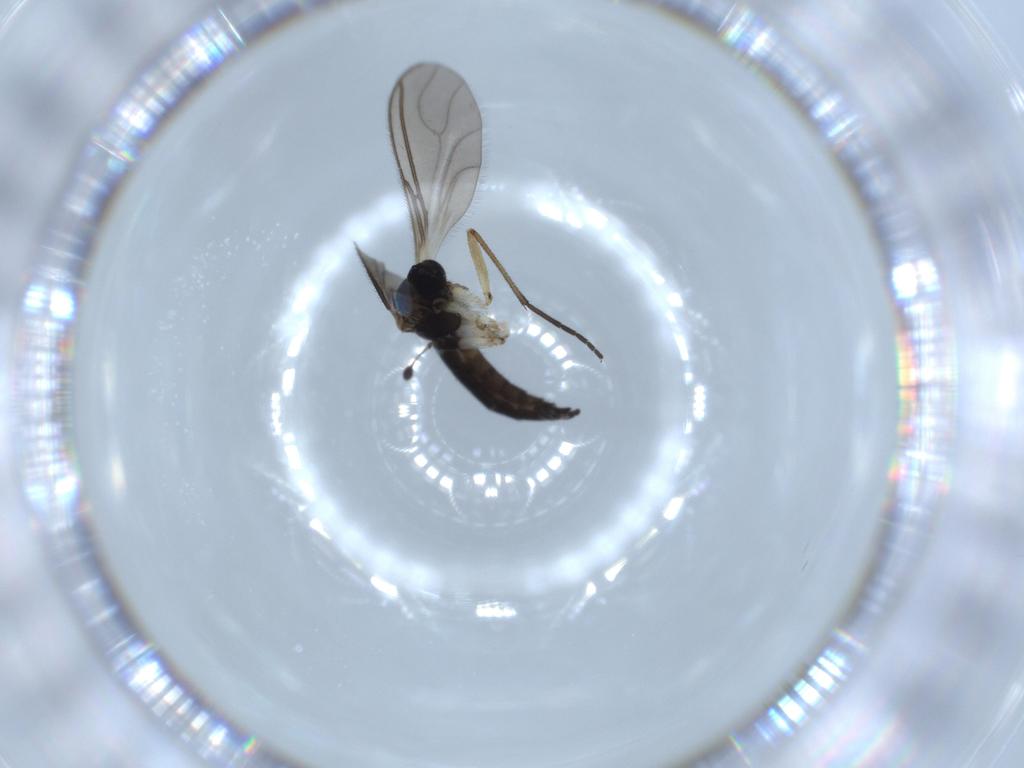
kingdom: Animalia
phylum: Arthropoda
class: Insecta
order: Diptera
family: Sciaridae
